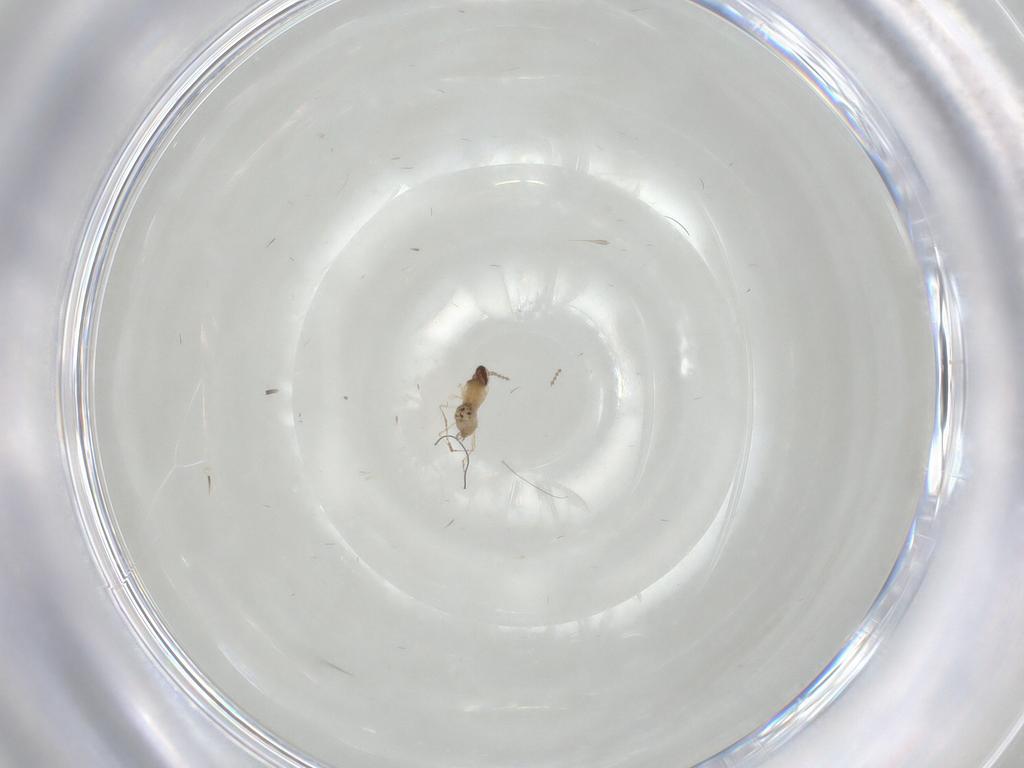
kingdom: Animalia
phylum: Arthropoda
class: Insecta
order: Diptera
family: Cecidomyiidae
